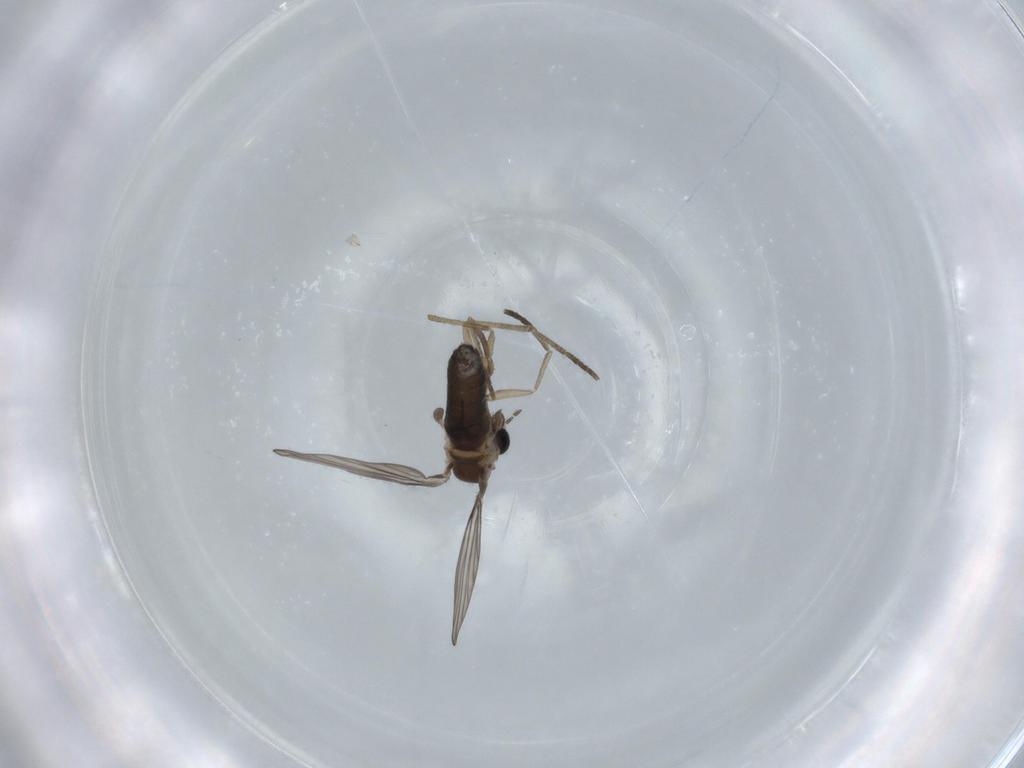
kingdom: Animalia
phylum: Arthropoda
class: Insecta
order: Diptera
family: Psychodidae
